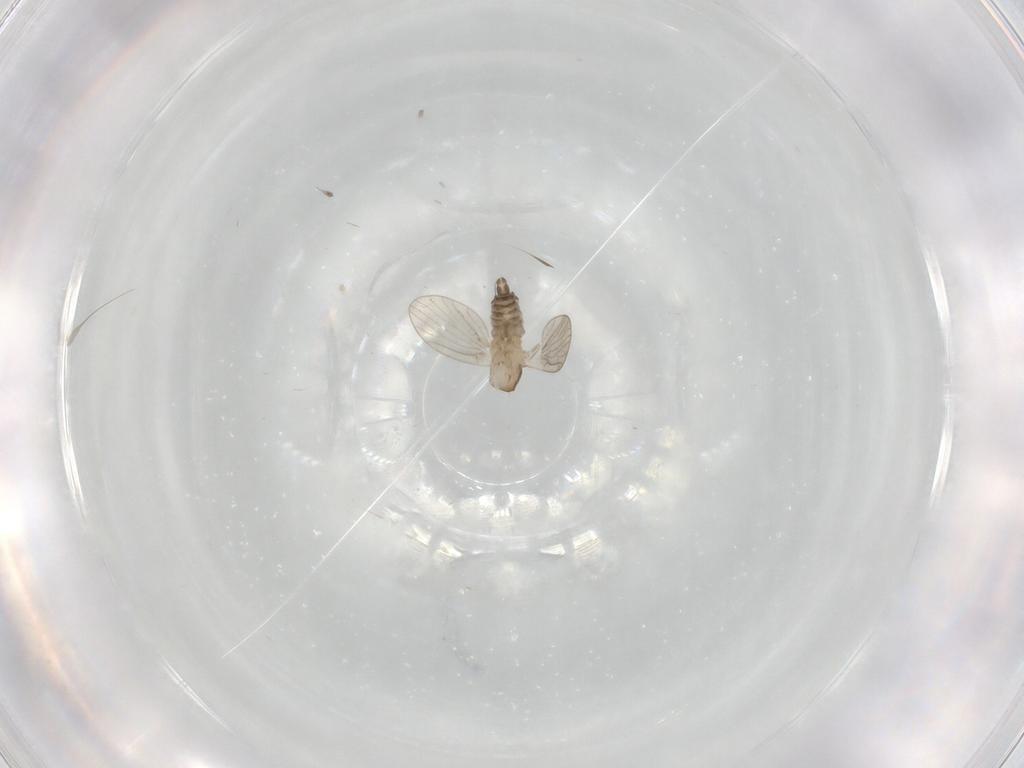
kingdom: Animalia
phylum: Arthropoda
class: Insecta
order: Diptera
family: Psychodidae
